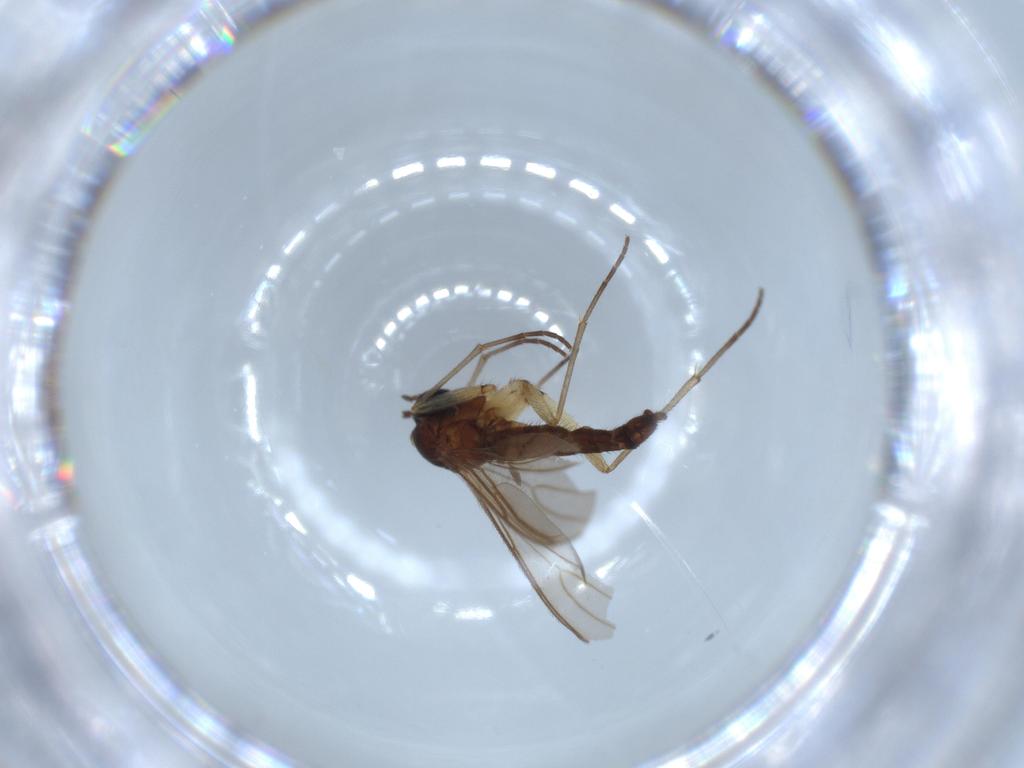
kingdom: Animalia
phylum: Arthropoda
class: Insecta
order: Diptera
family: Sciaridae
